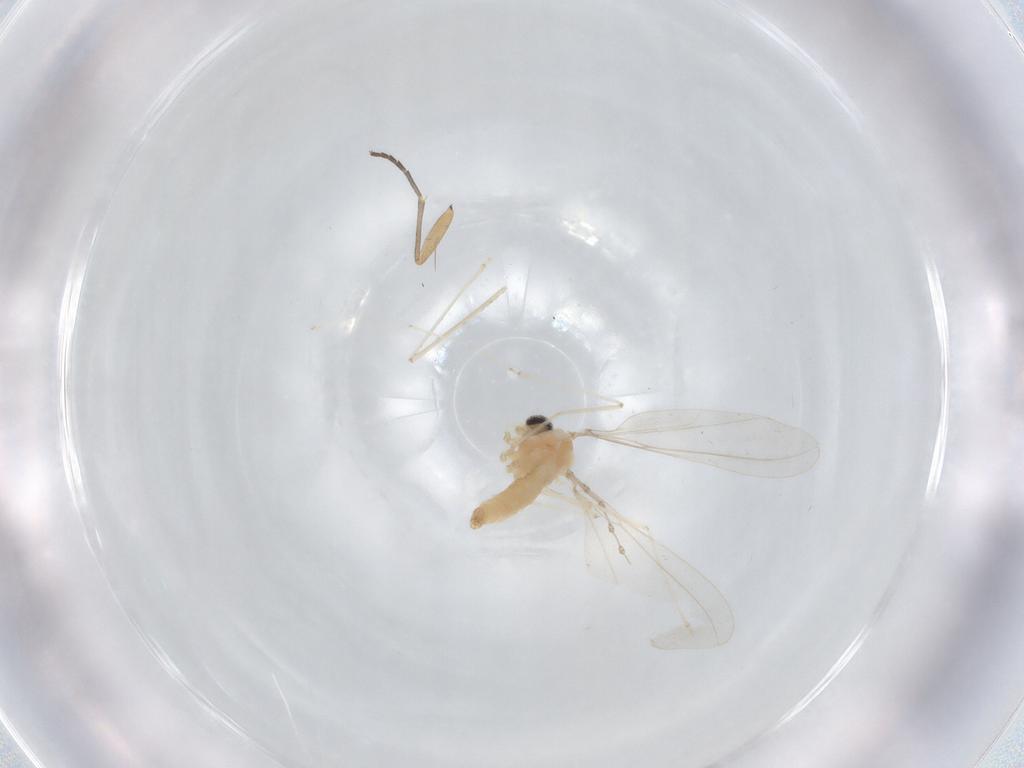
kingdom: Animalia
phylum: Arthropoda
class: Insecta
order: Diptera
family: Cecidomyiidae
